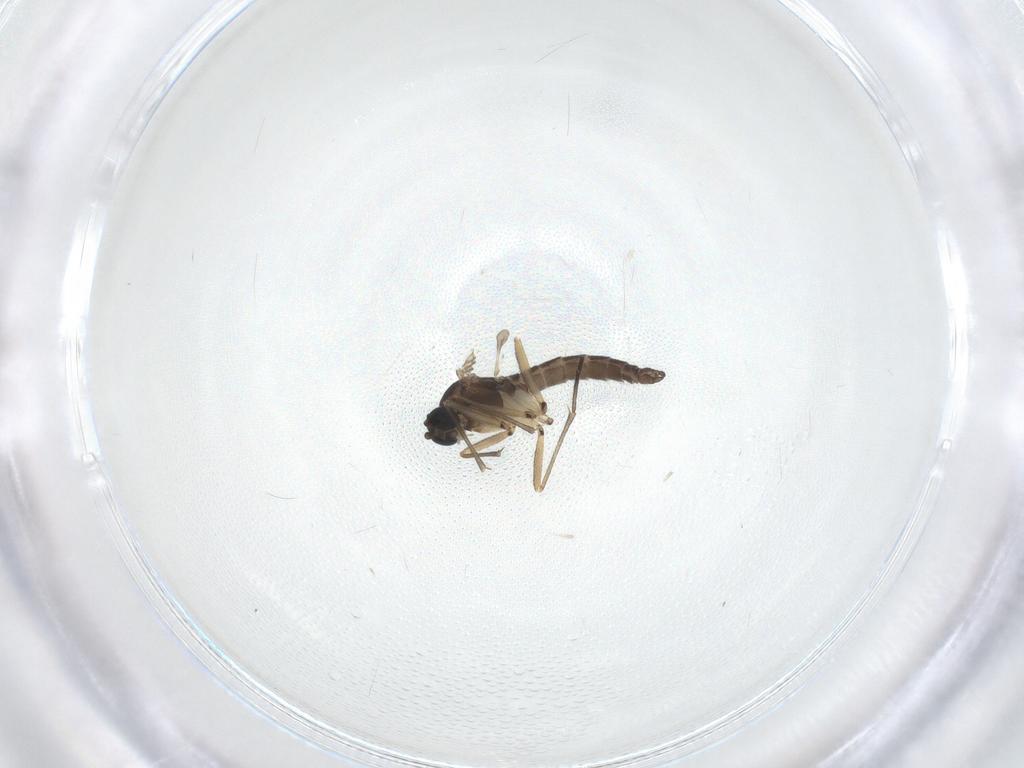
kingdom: Animalia
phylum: Arthropoda
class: Insecta
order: Diptera
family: Sciaridae
